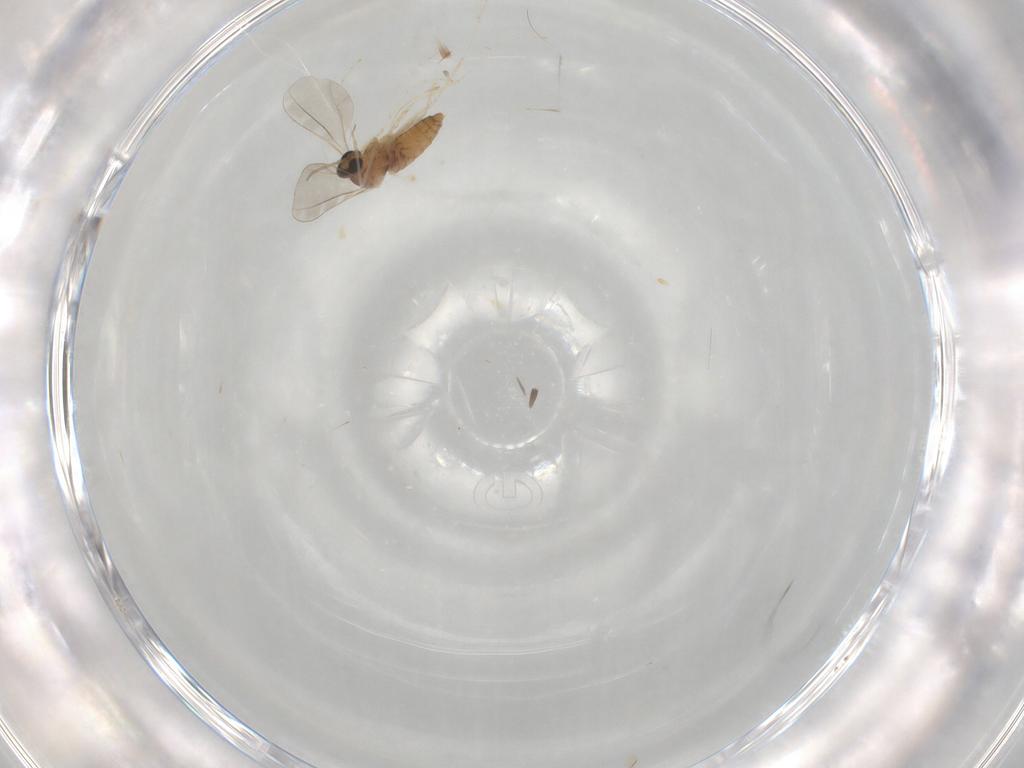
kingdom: Animalia
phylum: Arthropoda
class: Insecta
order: Diptera
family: Cecidomyiidae
